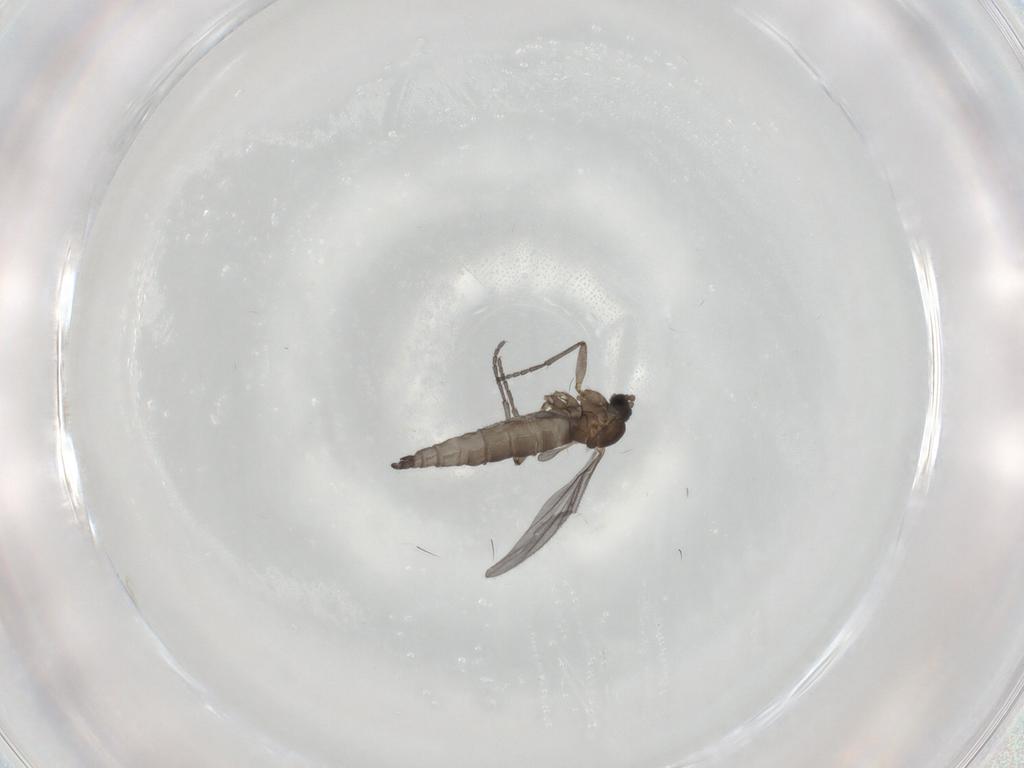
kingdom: Animalia
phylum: Arthropoda
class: Insecta
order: Diptera
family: Sciaridae
